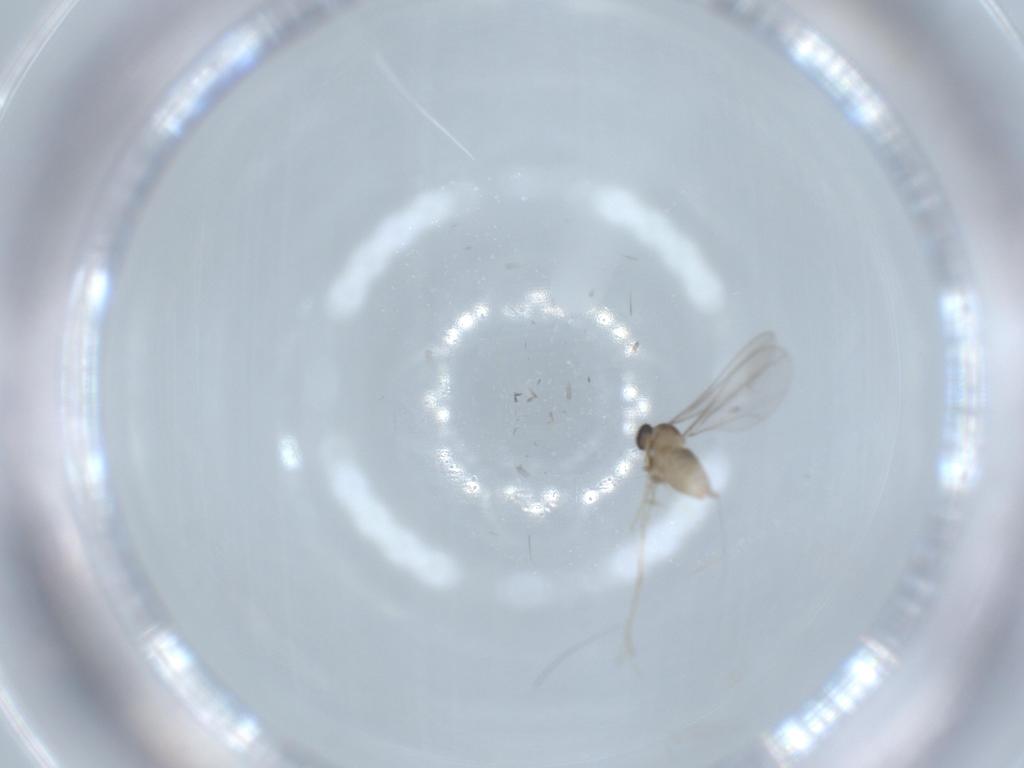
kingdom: Animalia
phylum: Arthropoda
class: Insecta
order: Diptera
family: Cecidomyiidae
